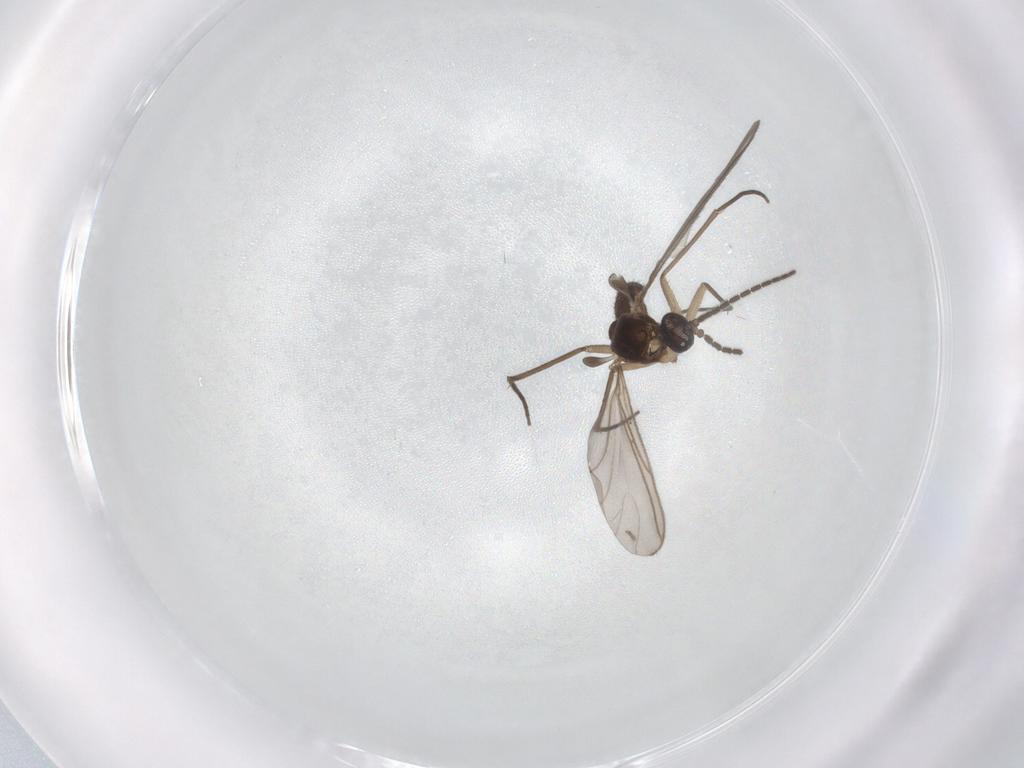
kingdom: Animalia
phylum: Arthropoda
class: Insecta
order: Diptera
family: Sciaridae
